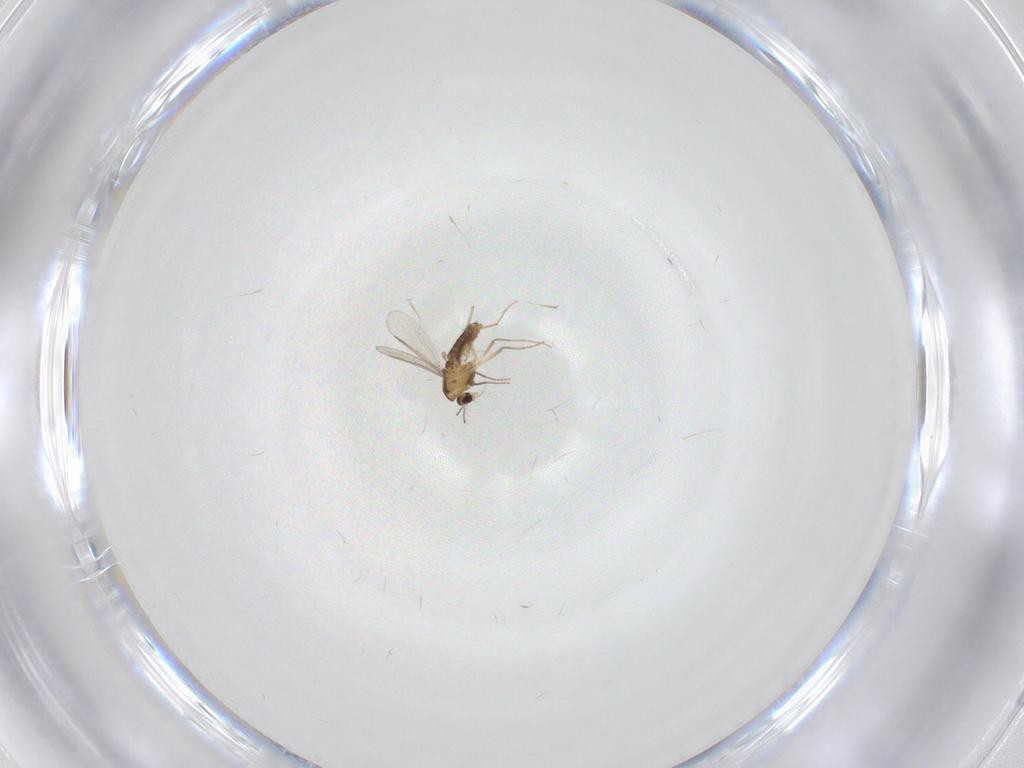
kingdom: Animalia
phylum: Arthropoda
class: Insecta
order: Diptera
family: Chironomidae
